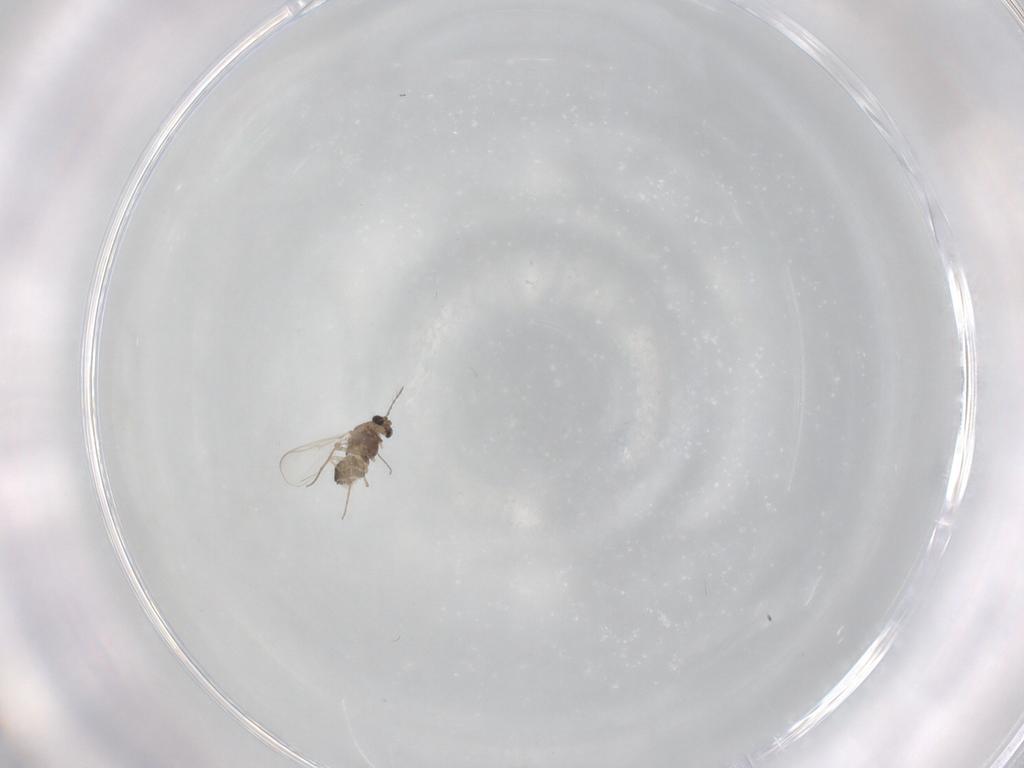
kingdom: Animalia
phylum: Arthropoda
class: Insecta
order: Diptera
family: Chironomidae
